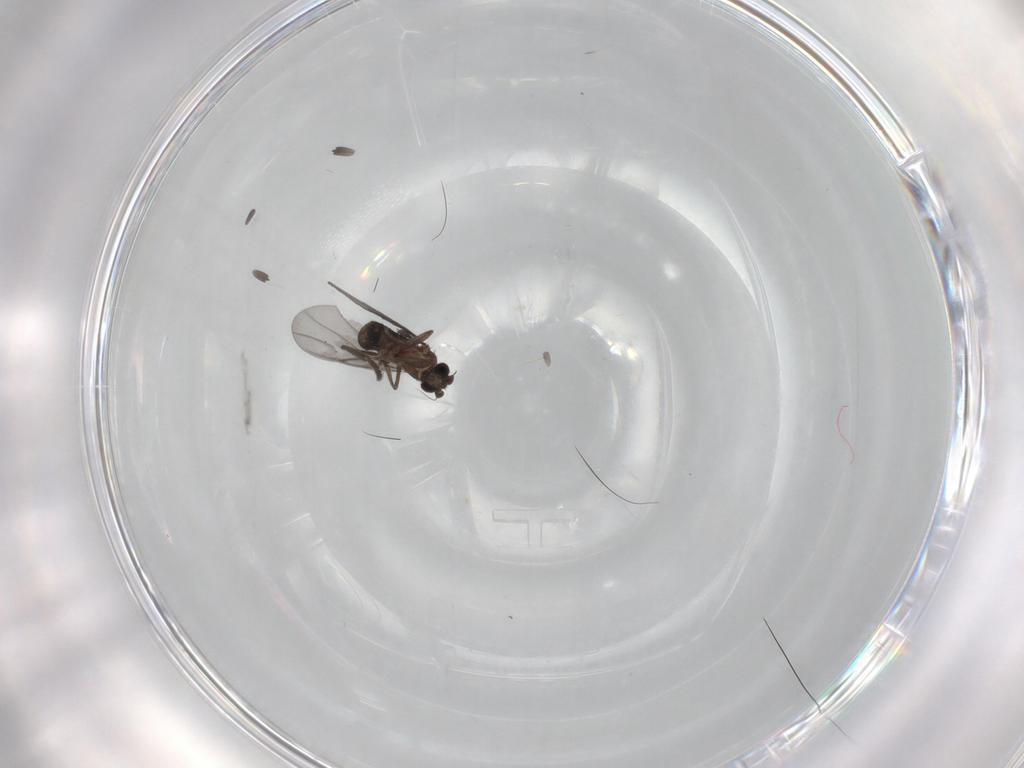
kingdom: Animalia
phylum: Arthropoda
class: Insecta
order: Diptera
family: Phoridae
